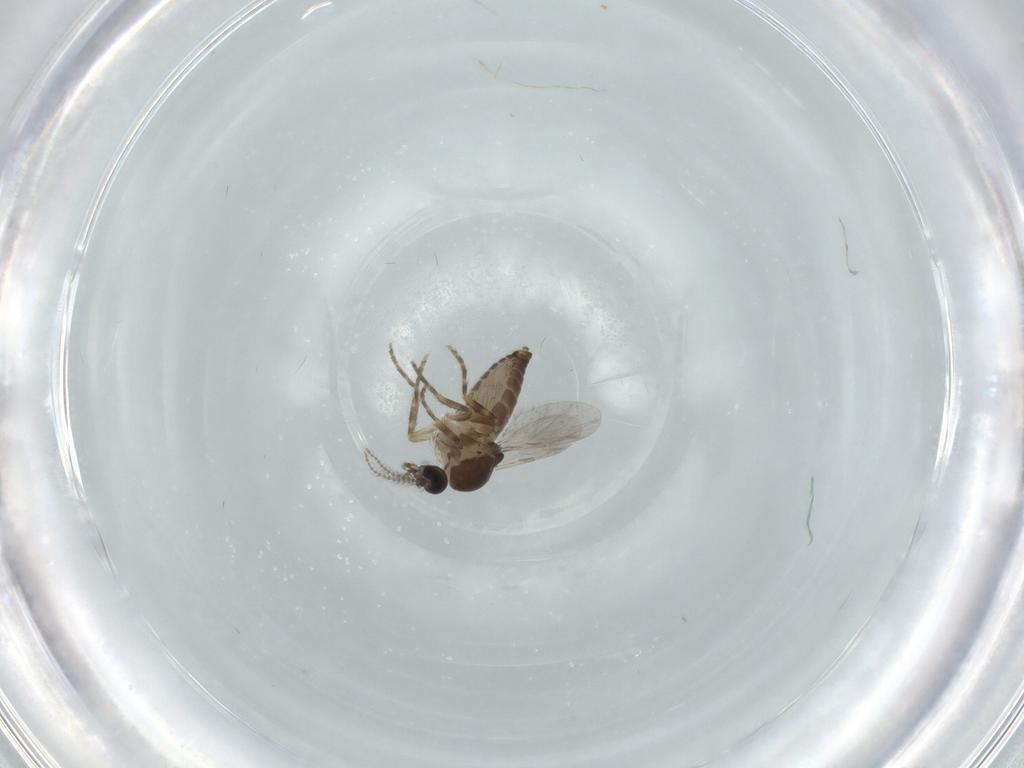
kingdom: Animalia
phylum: Arthropoda
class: Insecta
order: Diptera
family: Ceratopogonidae
